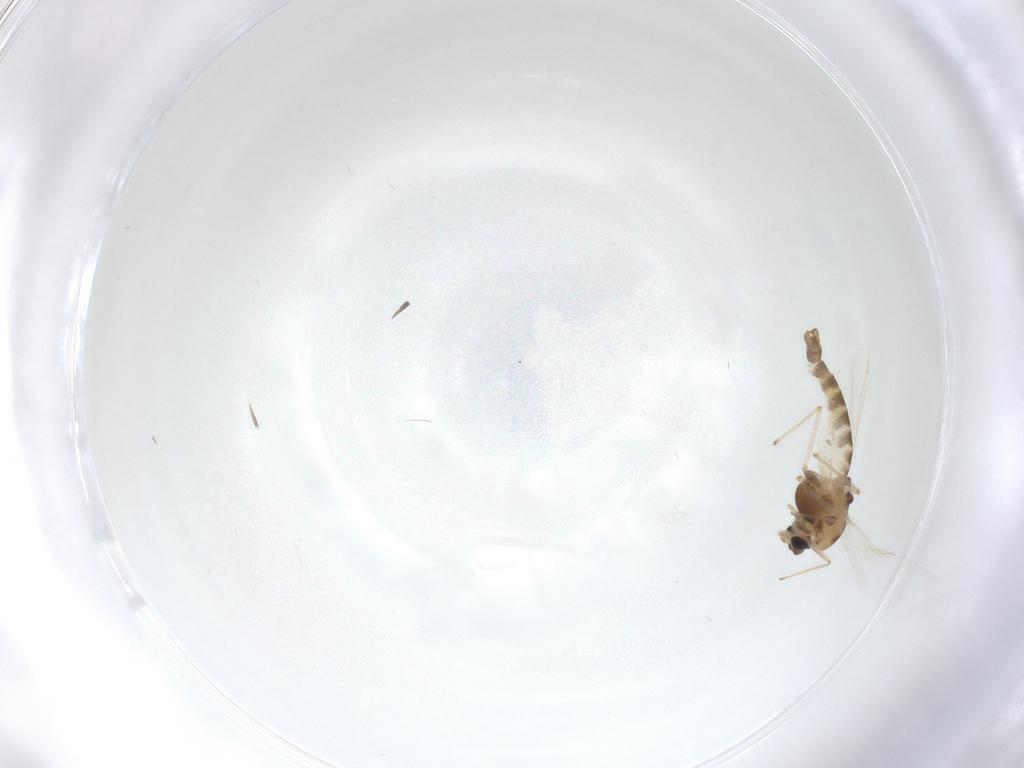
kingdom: Animalia
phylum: Arthropoda
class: Insecta
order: Diptera
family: Chironomidae
